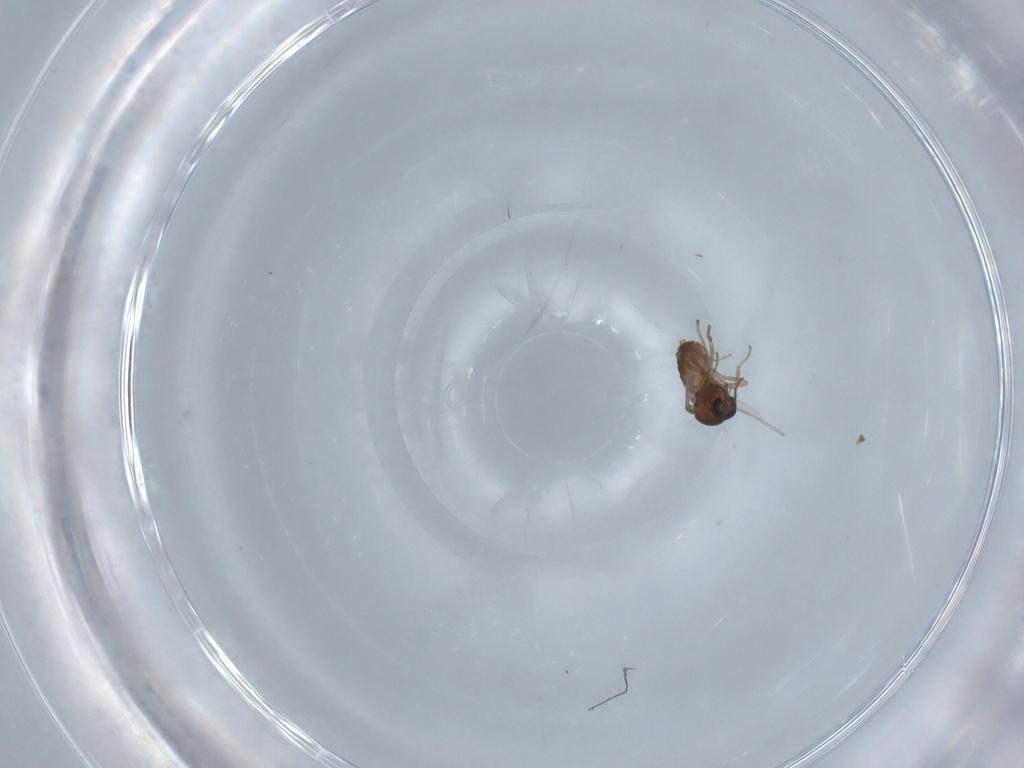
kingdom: Animalia
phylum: Arthropoda
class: Insecta
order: Diptera
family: Ceratopogonidae
